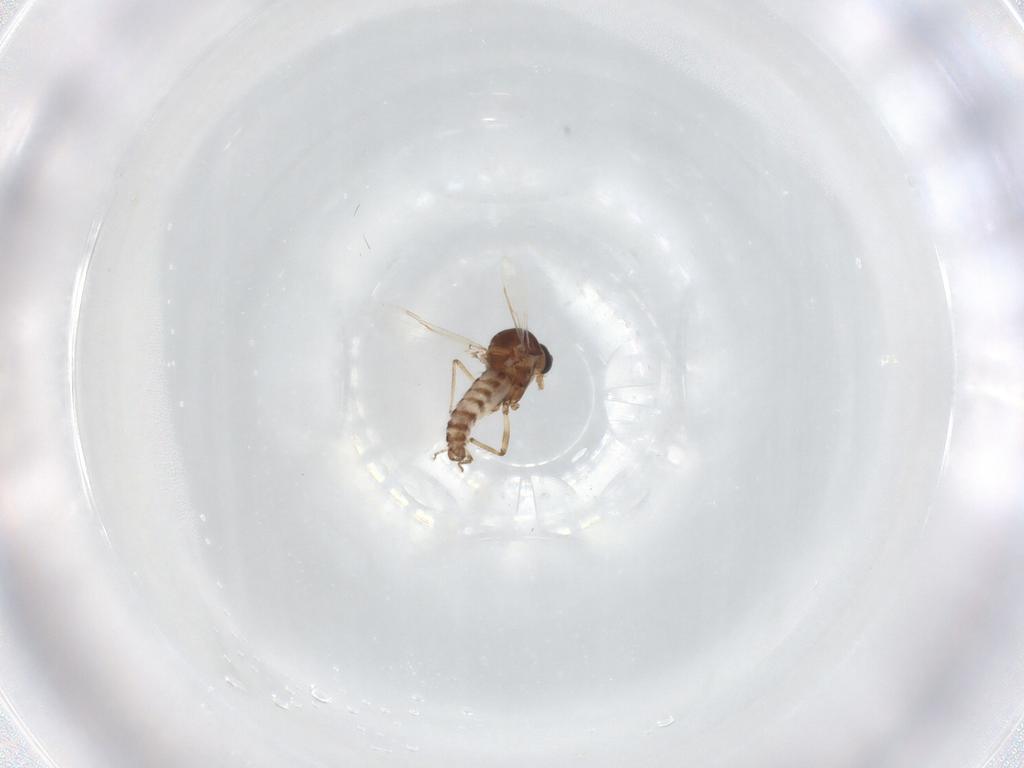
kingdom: Animalia
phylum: Arthropoda
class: Insecta
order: Diptera
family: Ceratopogonidae
